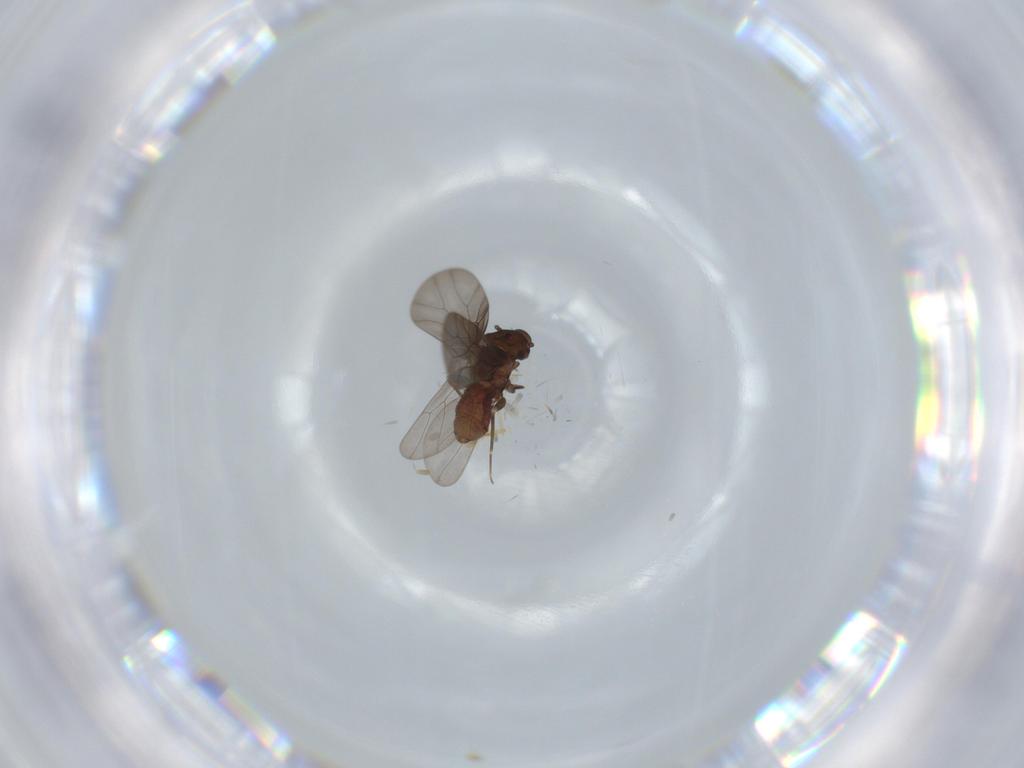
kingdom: Animalia
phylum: Arthropoda
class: Insecta
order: Psocodea
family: Lepidopsocidae
